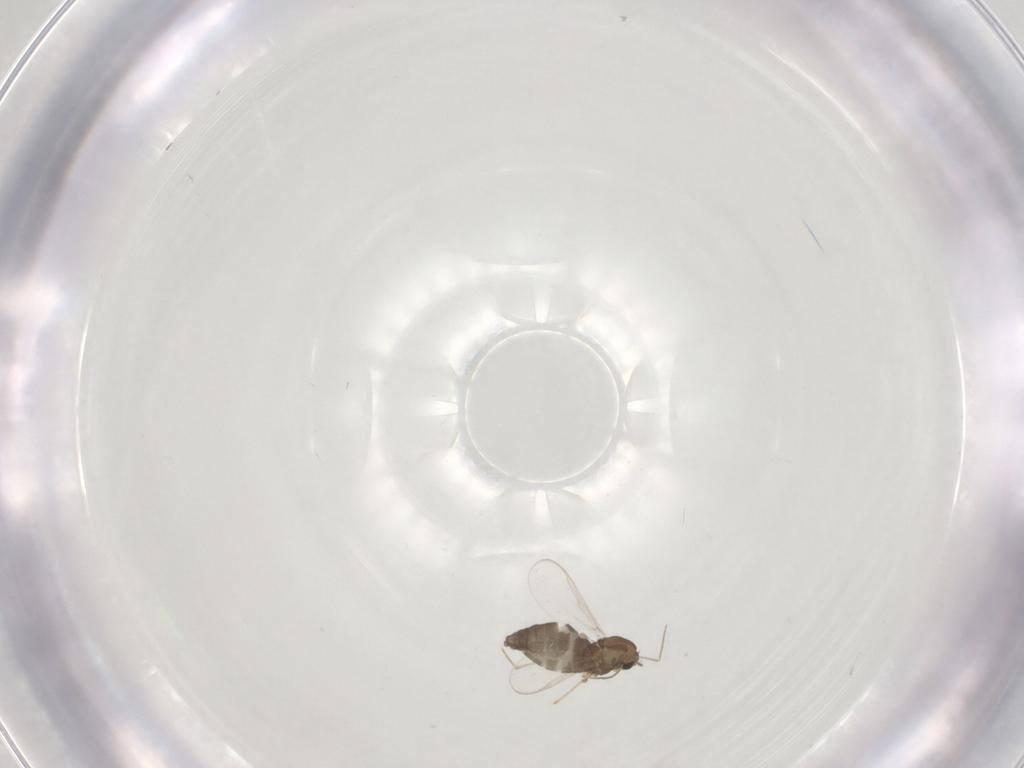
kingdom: Animalia
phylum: Arthropoda
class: Insecta
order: Diptera
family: Chironomidae
